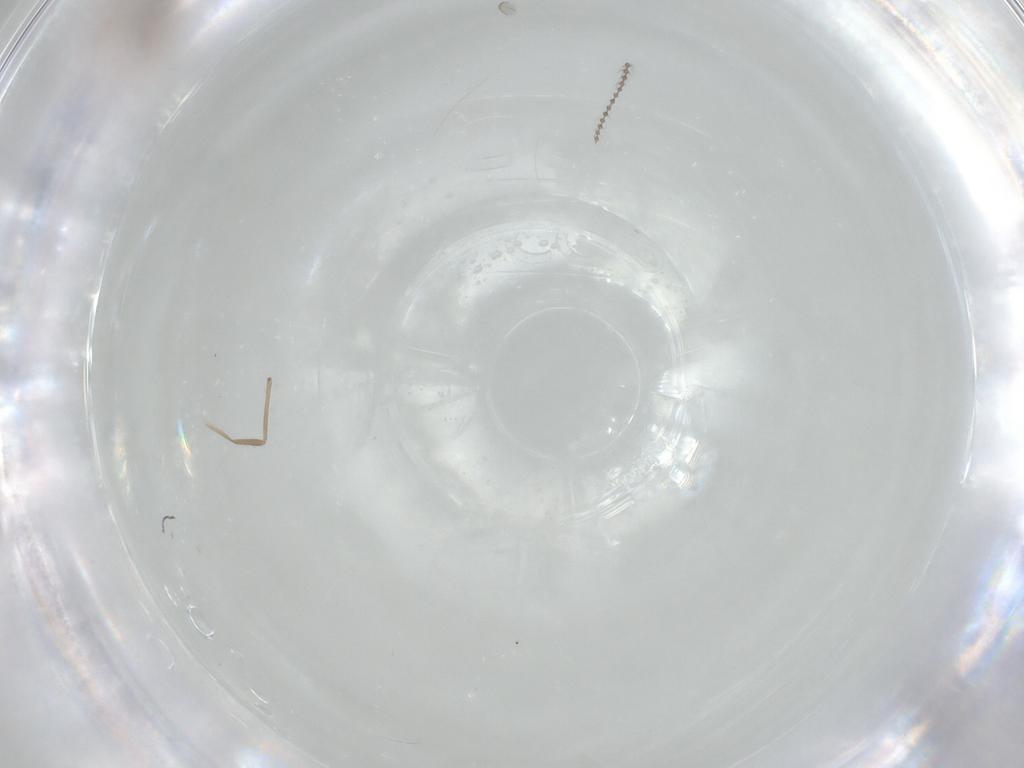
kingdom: Animalia
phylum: Arthropoda
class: Insecta
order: Diptera
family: Chironomidae
